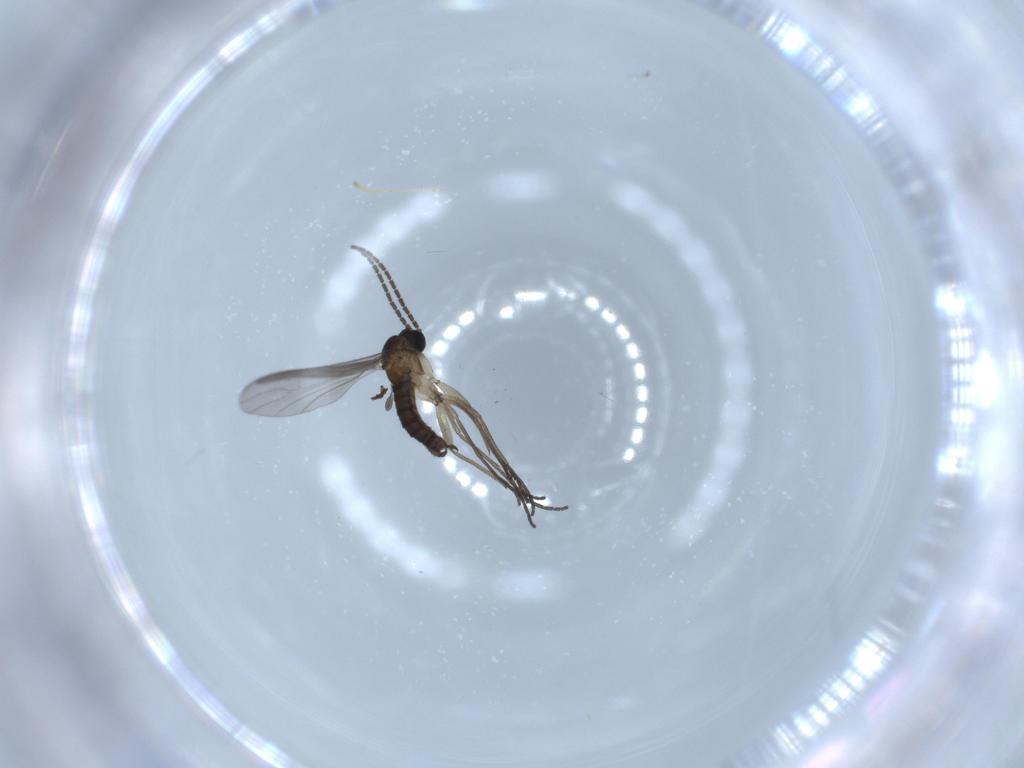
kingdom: Animalia
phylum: Arthropoda
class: Insecta
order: Diptera
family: Sciaridae
